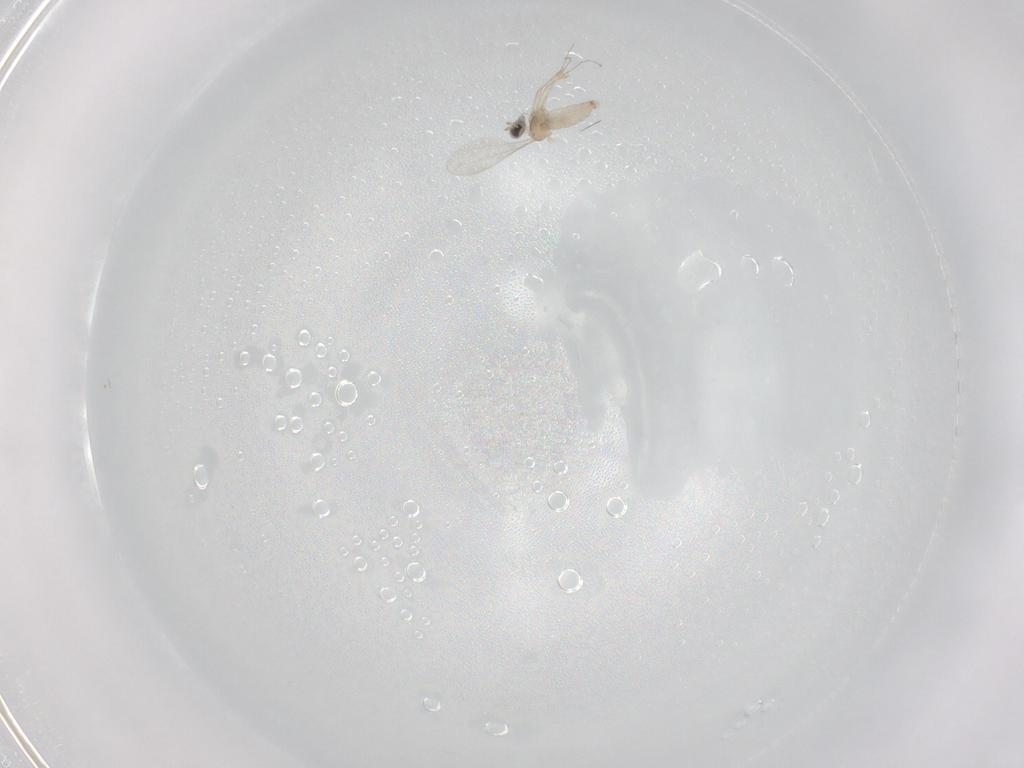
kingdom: Animalia
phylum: Arthropoda
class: Insecta
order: Diptera
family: Cecidomyiidae
